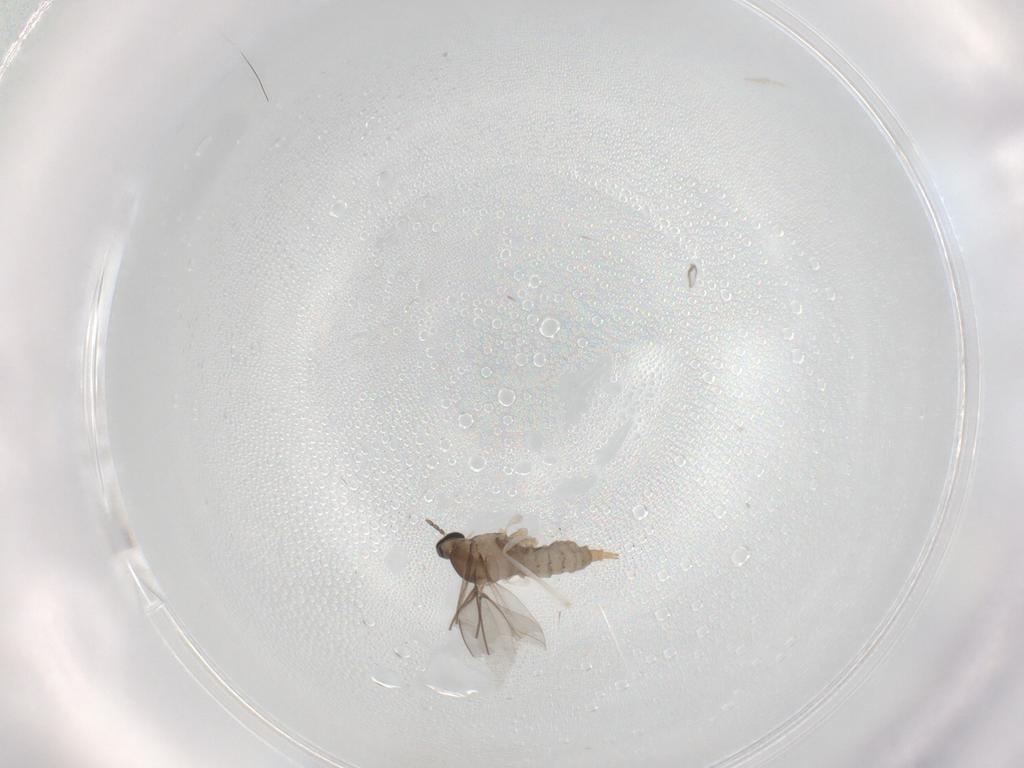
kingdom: Animalia
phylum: Arthropoda
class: Insecta
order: Diptera
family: Cecidomyiidae
